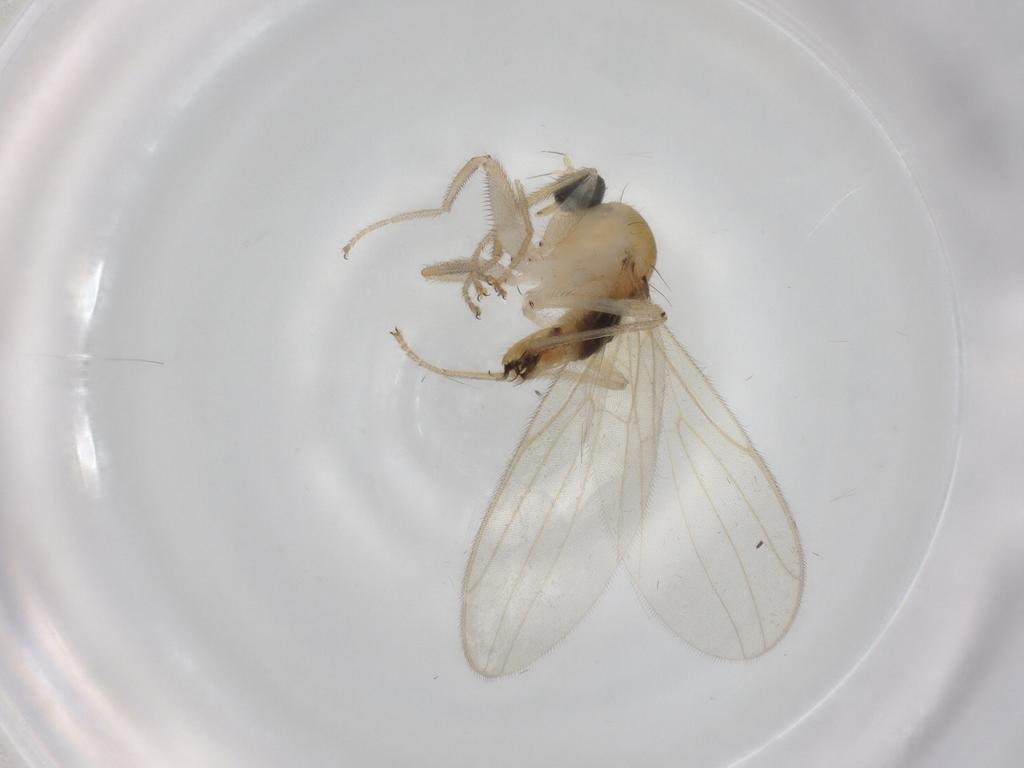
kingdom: Animalia
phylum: Arthropoda
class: Insecta
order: Diptera
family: Hybotidae
